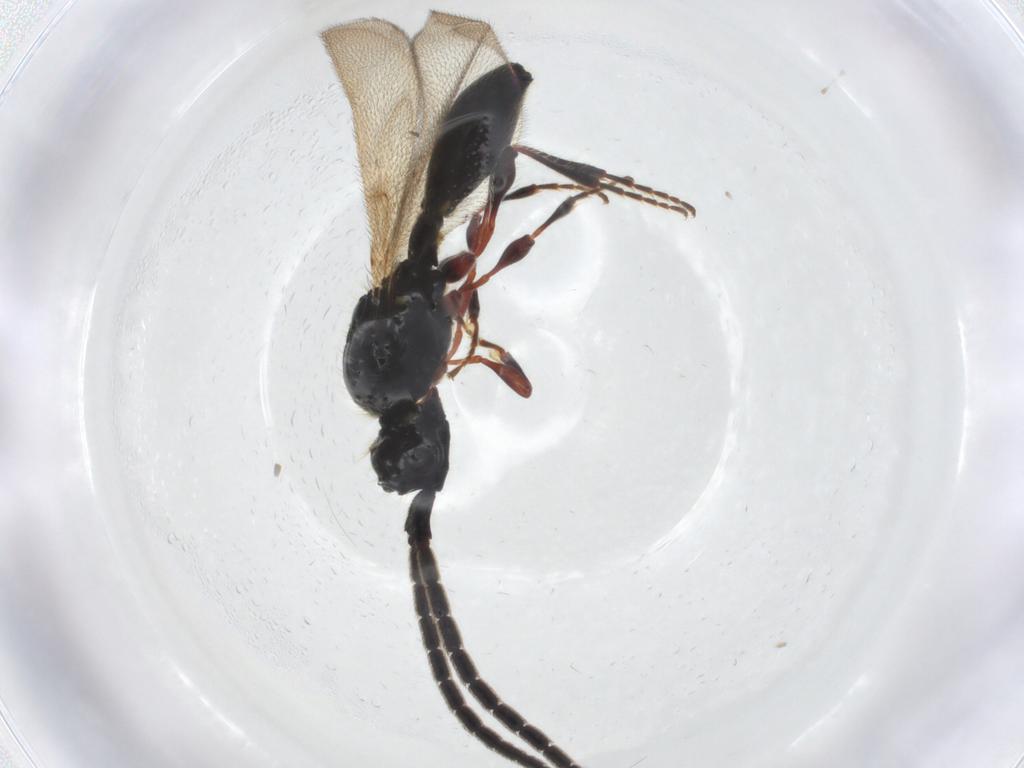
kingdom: Animalia
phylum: Arthropoda
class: Insecta
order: Hymenoptera
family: Diapriidae
